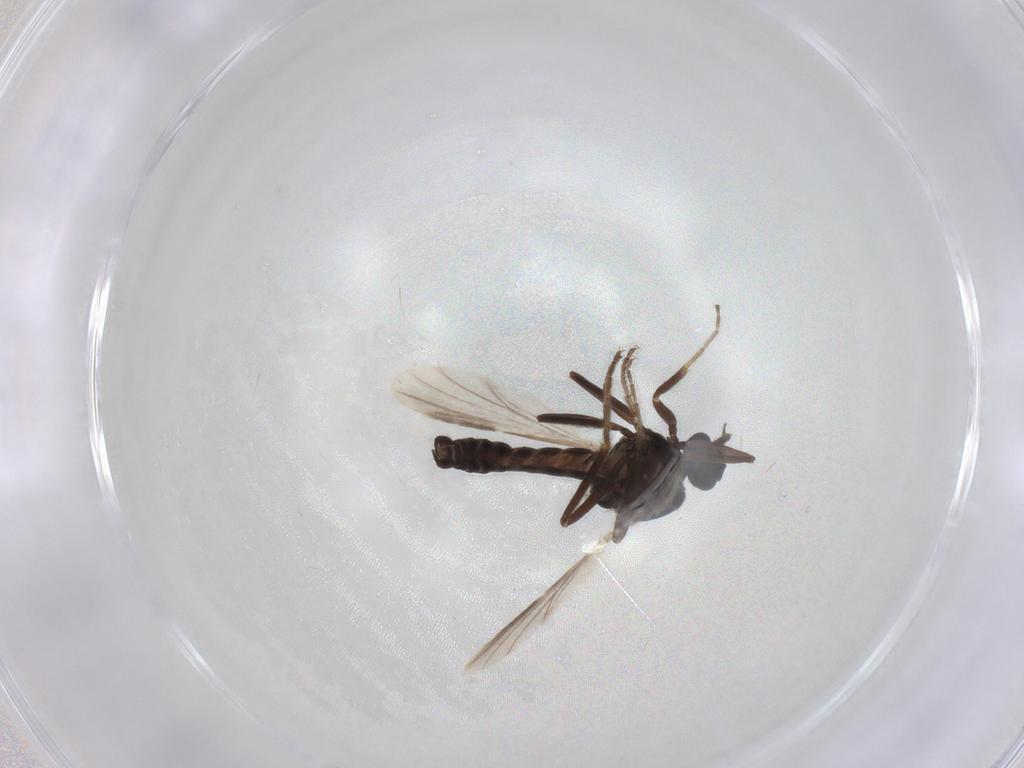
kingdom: Animalia
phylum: Arthropoda
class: Insecta
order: Diptera
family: Ceratopogonidae
